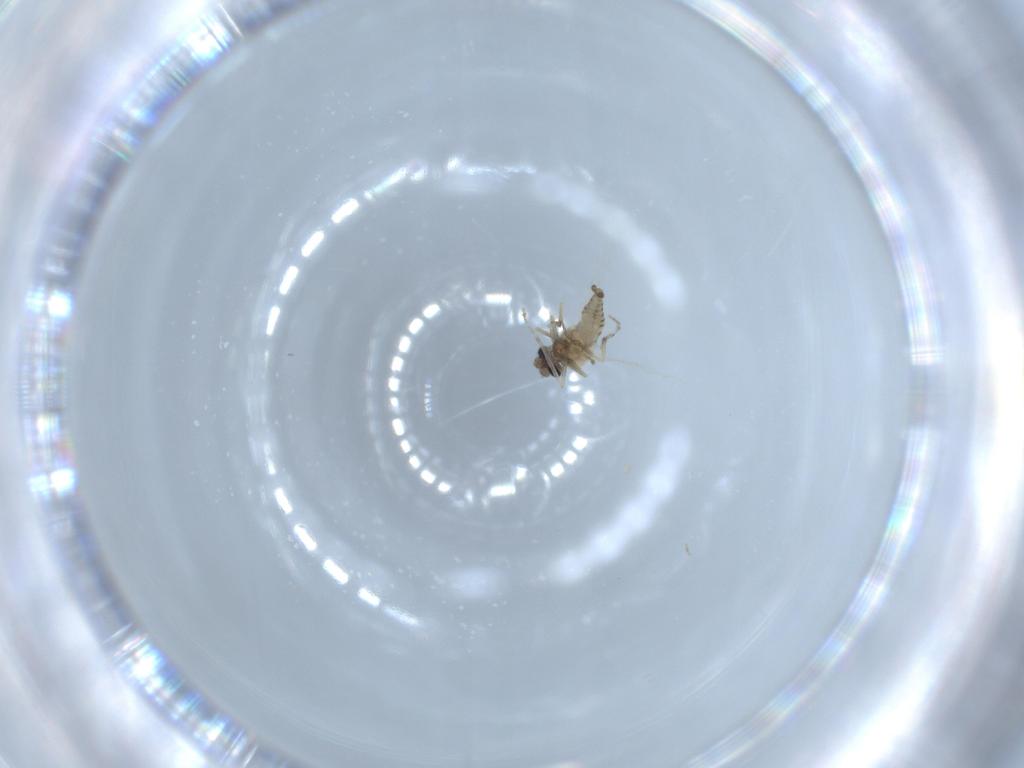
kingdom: Animalia
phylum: Arthropoda
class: Insecta
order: Diptera
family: Ceratopogonidae
